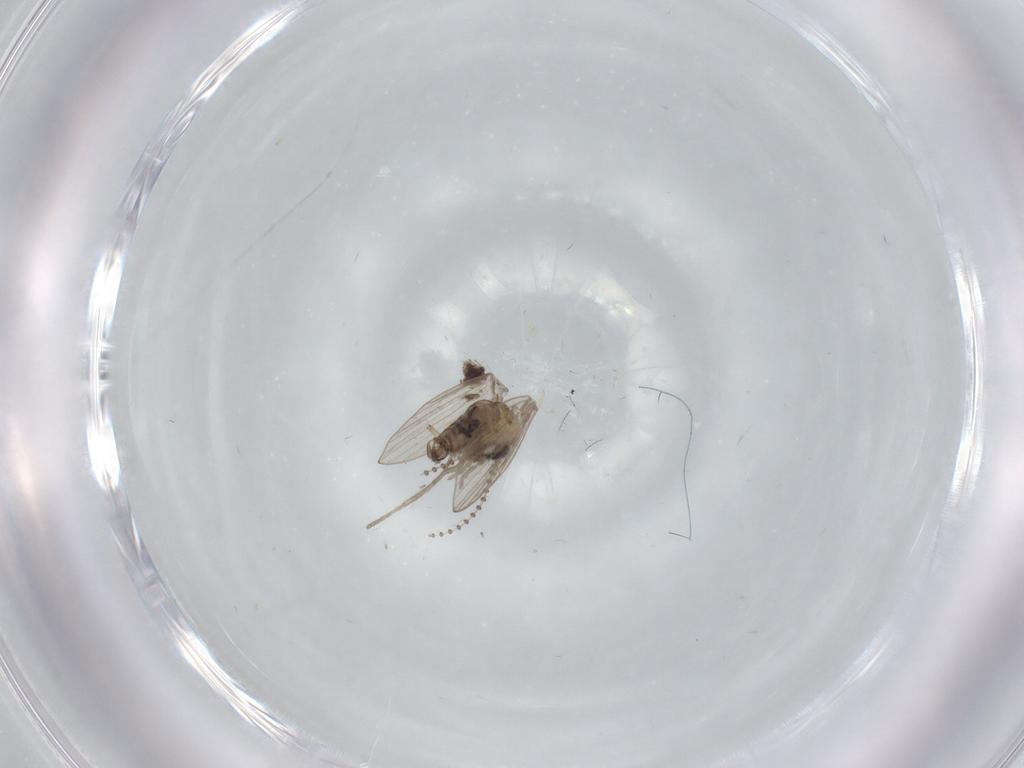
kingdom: Animalia
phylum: Arthropoda
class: Insecta
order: Diptera
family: Psychodidae
